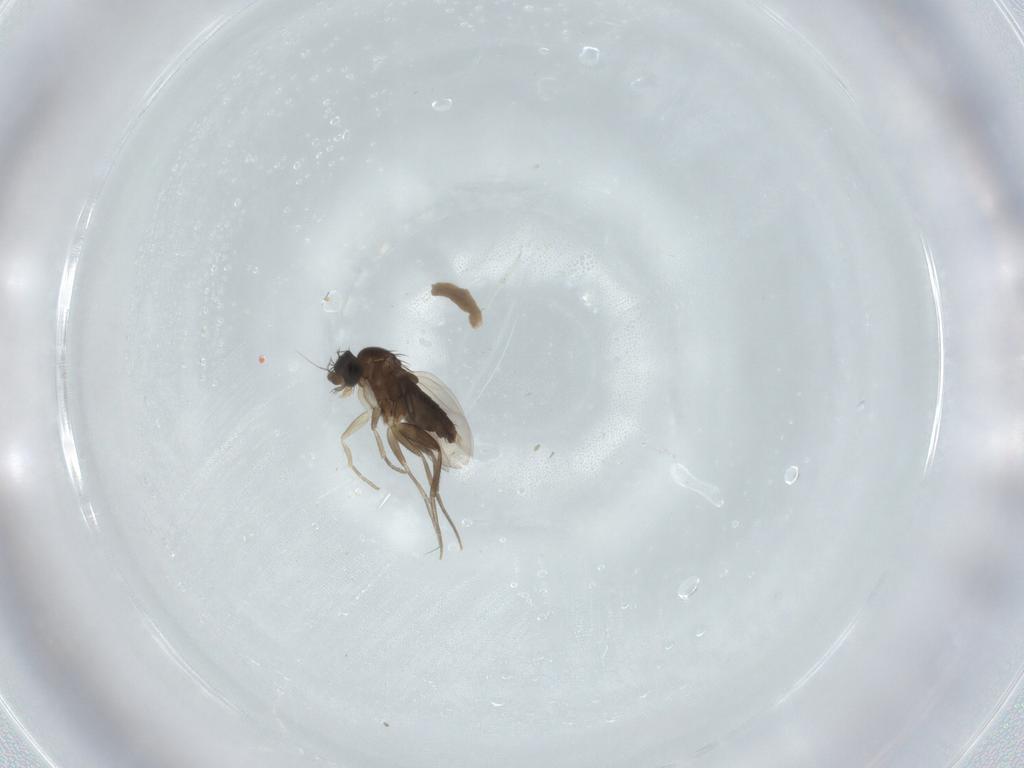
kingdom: Animalia
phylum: Arthropoda
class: Insecta
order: Diptera
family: Phoridae
